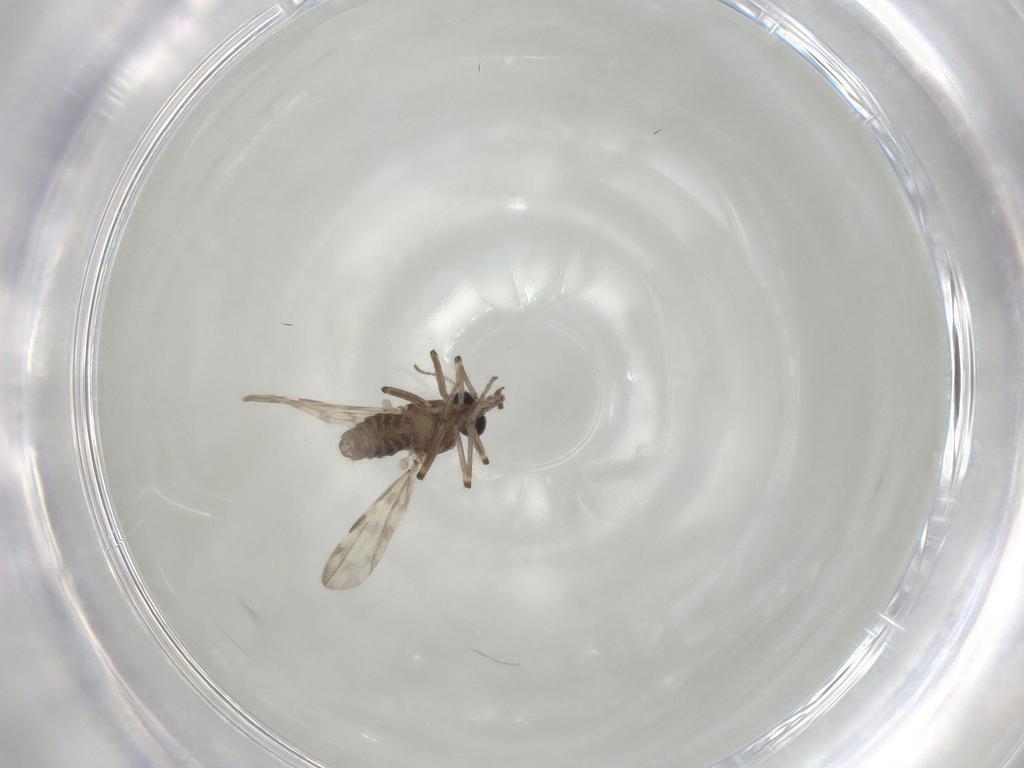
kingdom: Animalia
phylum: Arthropoda
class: Insecta
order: Diptera
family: Ceratopogonidae
